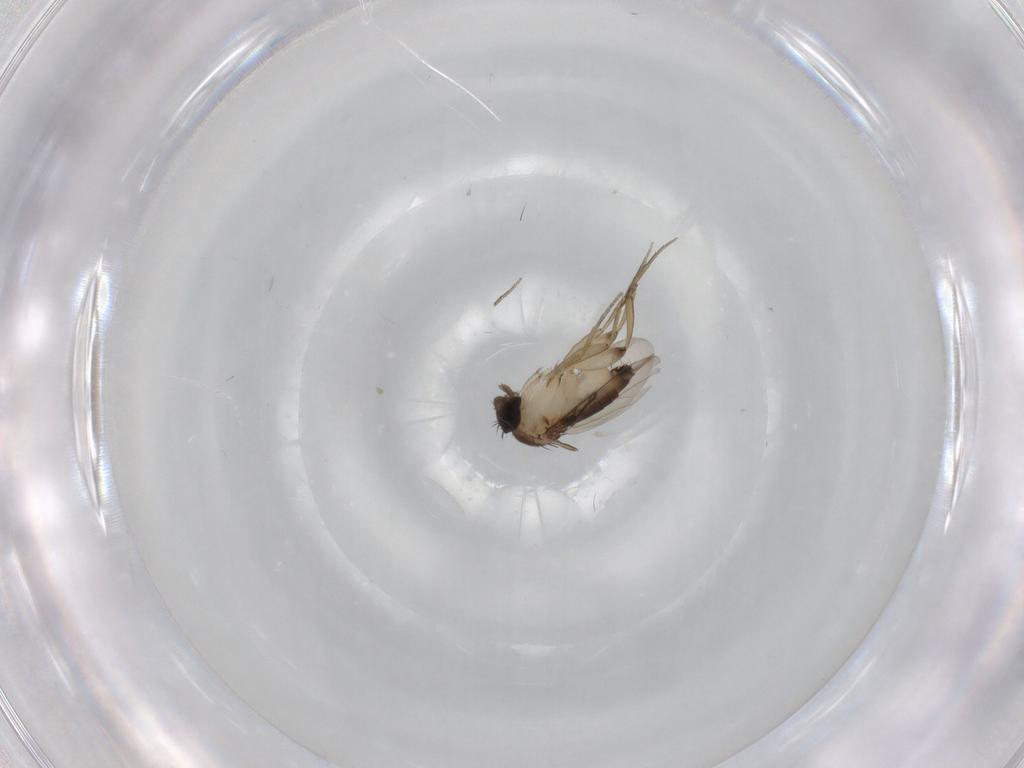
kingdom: Animalia
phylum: Arthropoda
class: Insecta
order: Diptera
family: Phoridae
